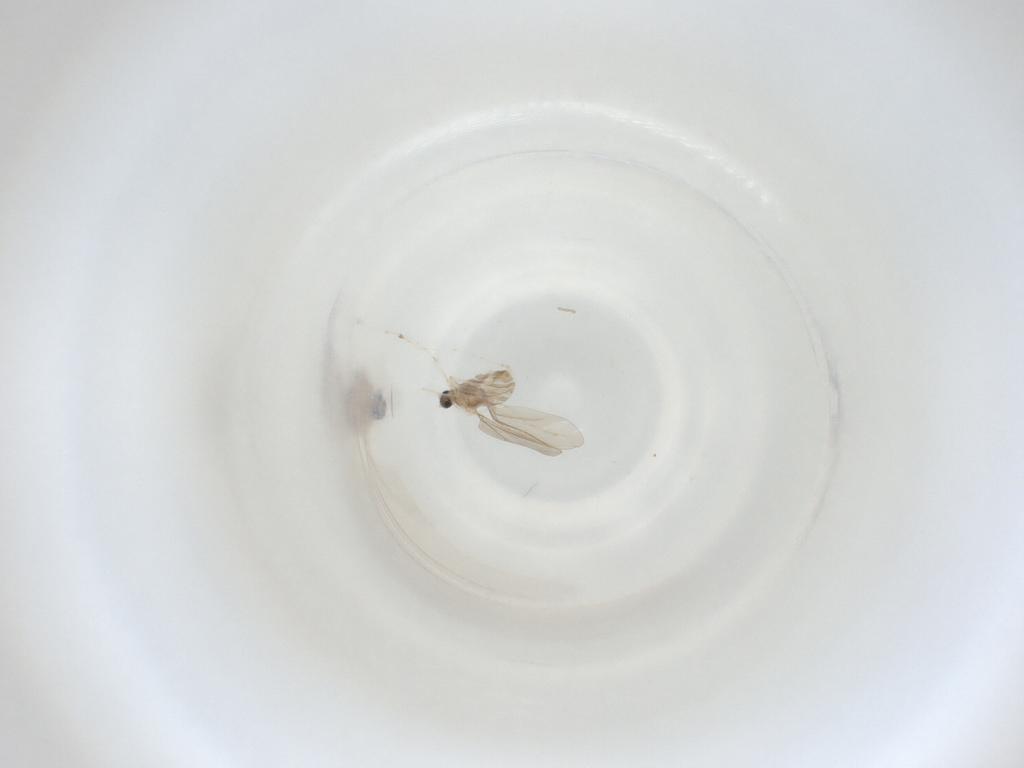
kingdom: Animalia
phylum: Arthropoda
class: Insecta
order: Diptera
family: Cecidomyiidae
